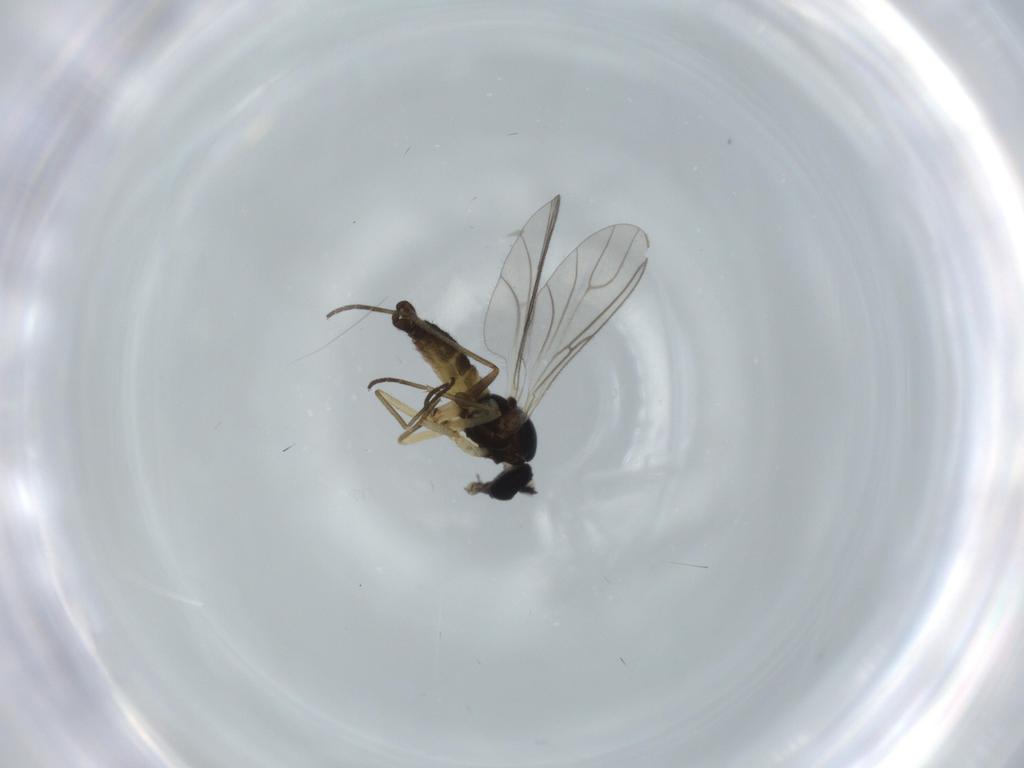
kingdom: Animalia
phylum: Arthropoda
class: Insecta
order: Diptera
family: Sciaridae
